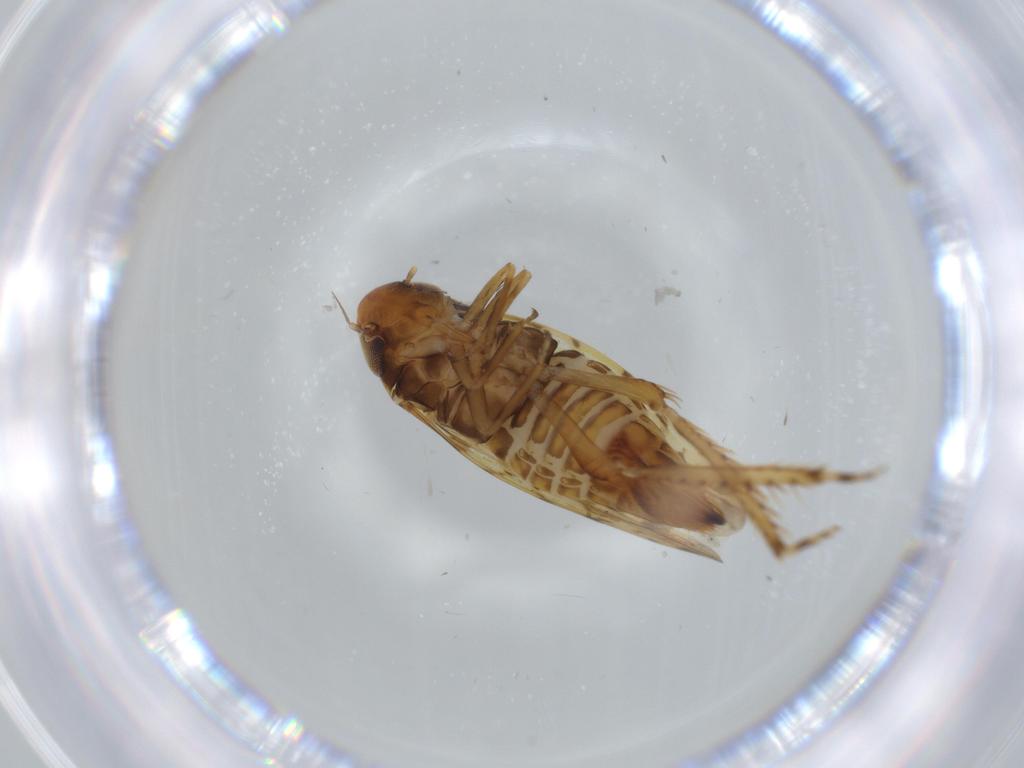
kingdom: Animalia
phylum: Arthropoda
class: Insecta
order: Hemiptera
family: Cicadellidae
